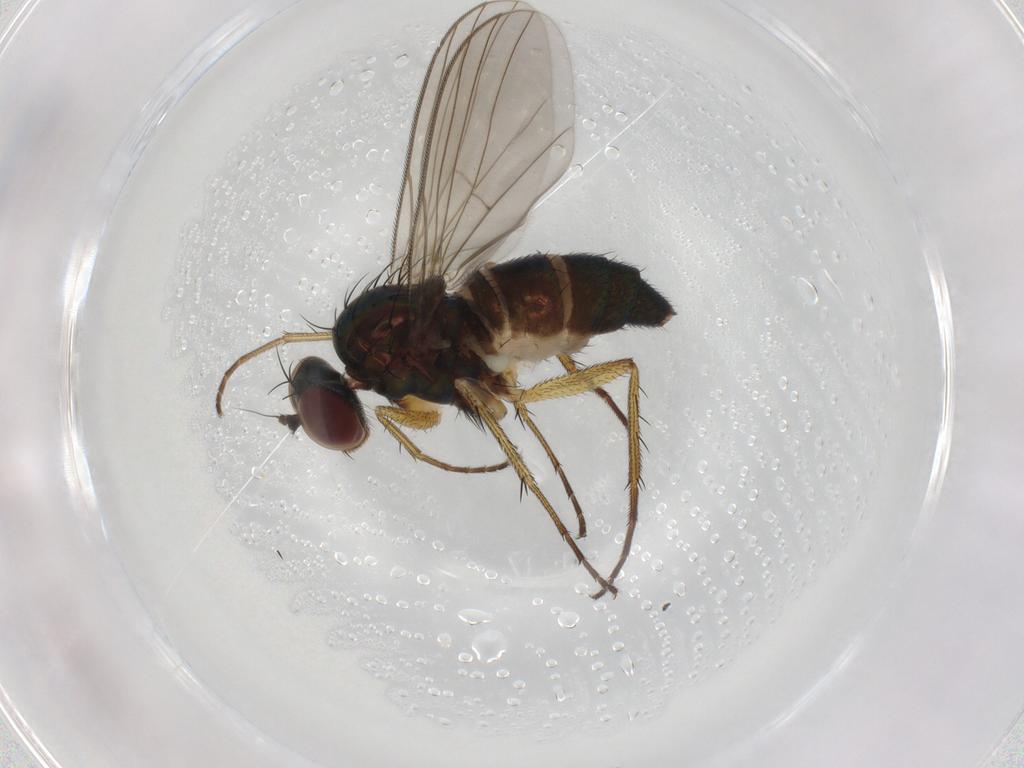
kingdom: Animalia
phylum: Arthropoda
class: Insecta
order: Diptera
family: Dolichopodidae
